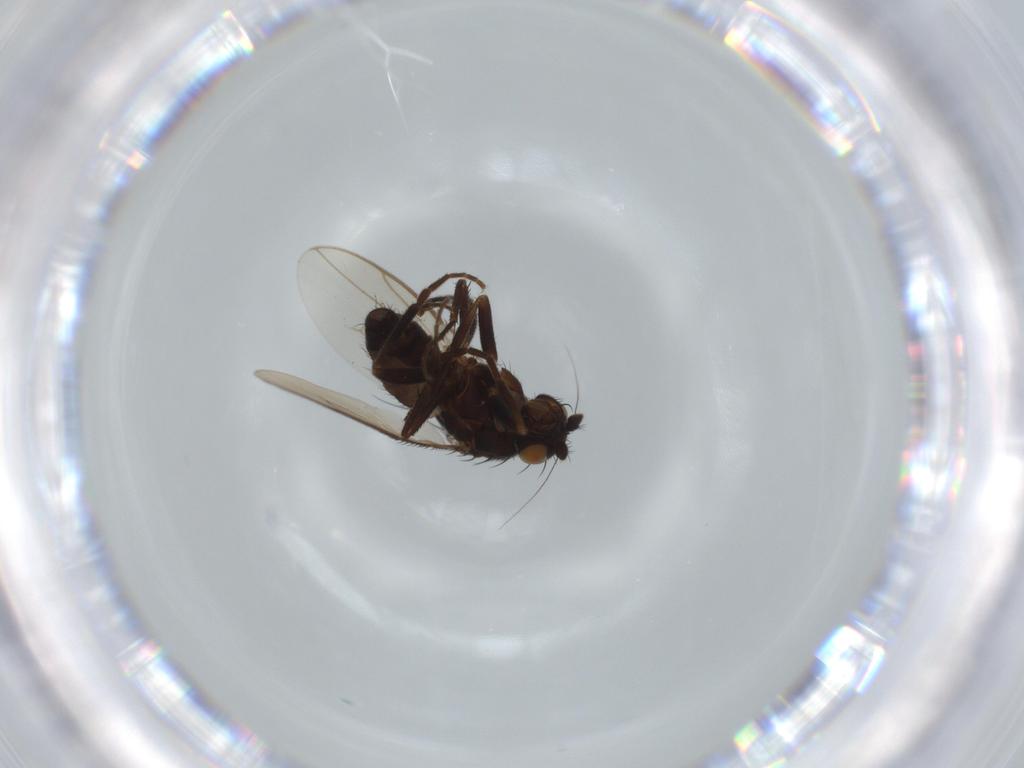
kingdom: Animalia
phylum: Arthropoda
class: Insecta
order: Diptera
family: Sphaeroceridae
